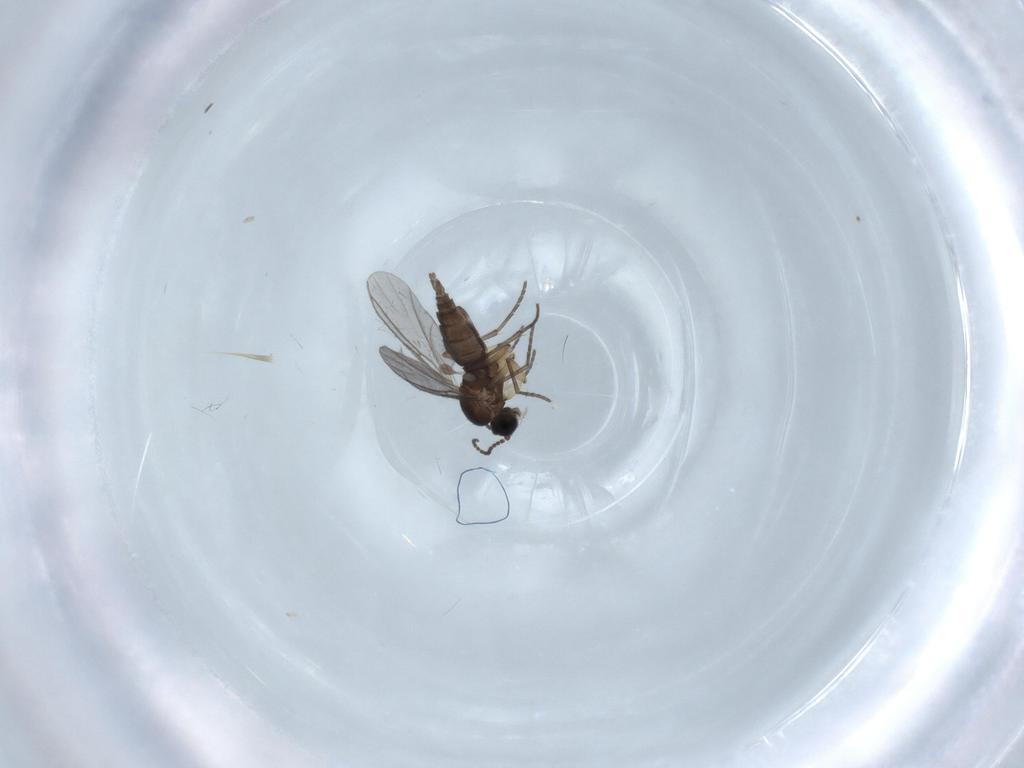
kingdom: Animalia
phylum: Arthropoda
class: Insecta
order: Diptera
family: Sciaridae
